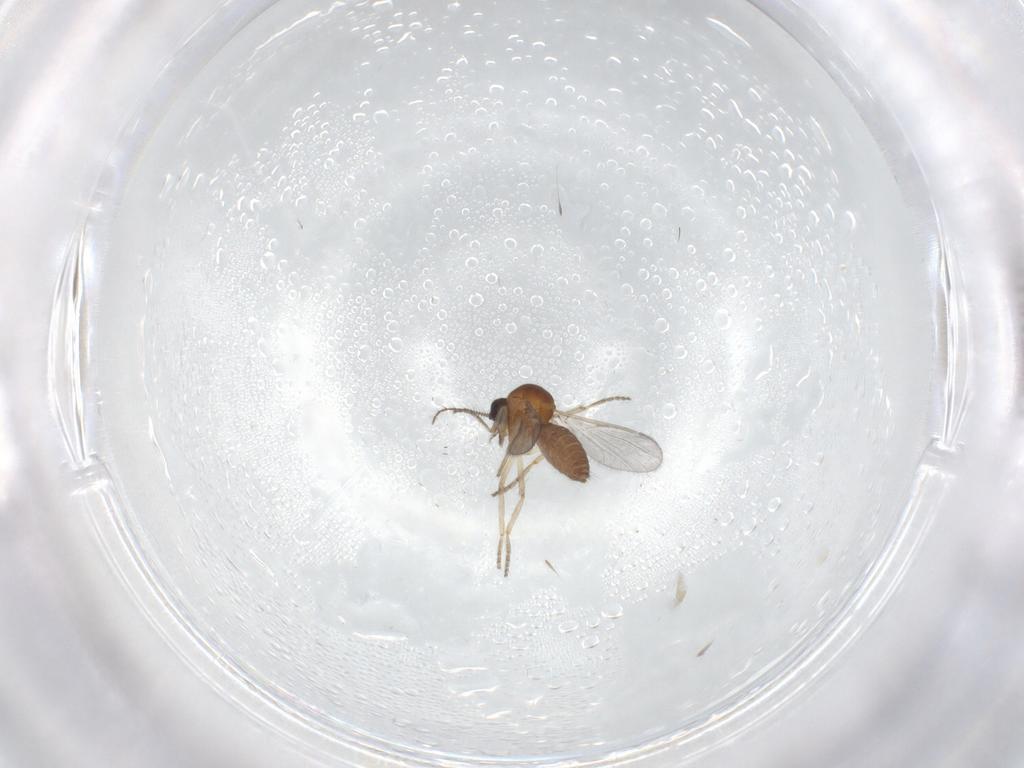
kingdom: Animalia
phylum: Arthropoda
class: Insecta
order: Diptera
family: Ceratopogonidae
